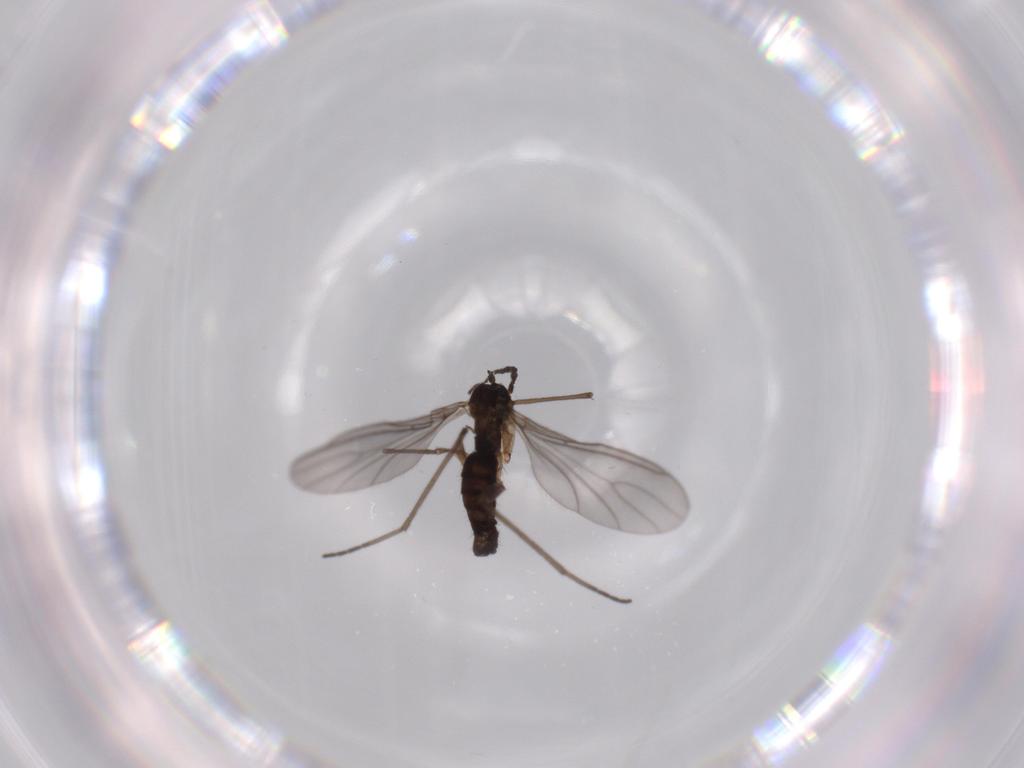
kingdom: Animalia
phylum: Arthropoda
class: Insecta
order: Diptera
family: Sciaridae
